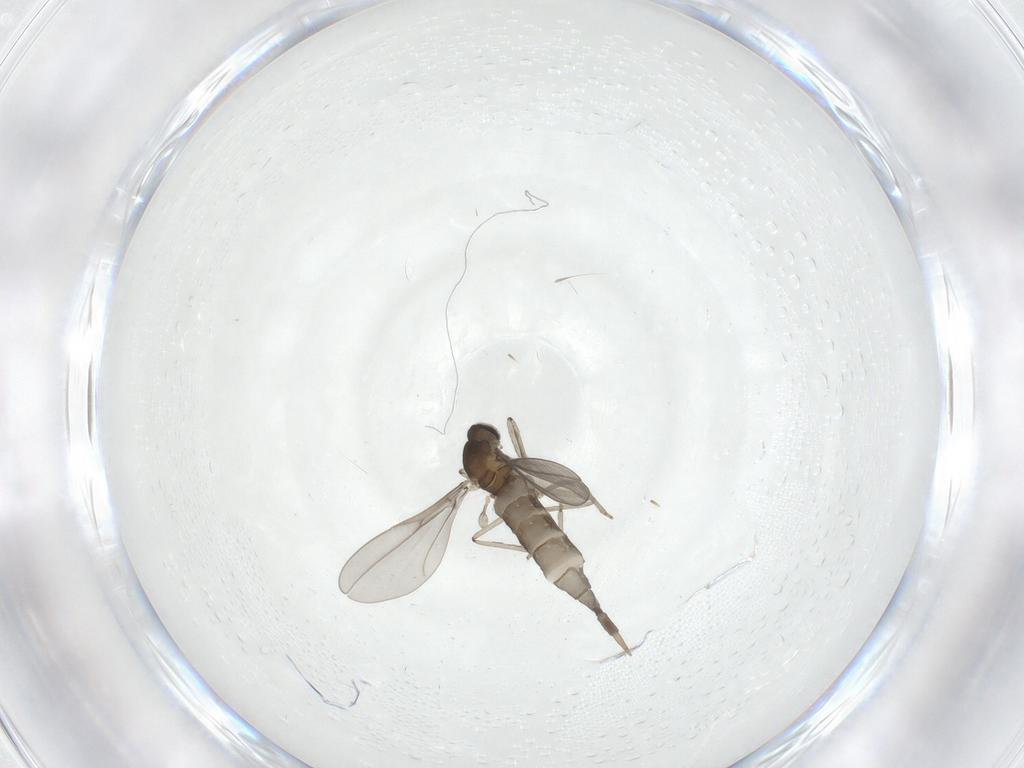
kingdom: Animalia
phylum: Arthropoda
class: Insecta
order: Diptera
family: Cecidomyiidae
